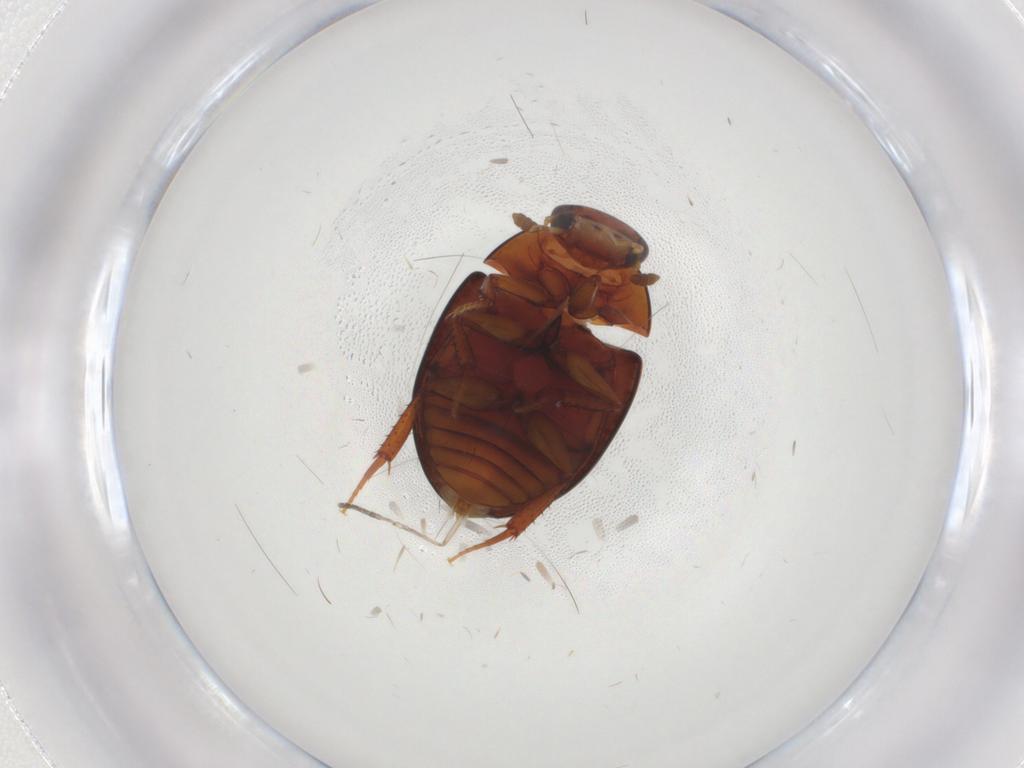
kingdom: Animalia
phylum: Arthropoda
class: Insecta
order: Coleoptera
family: Hydrophilidae
